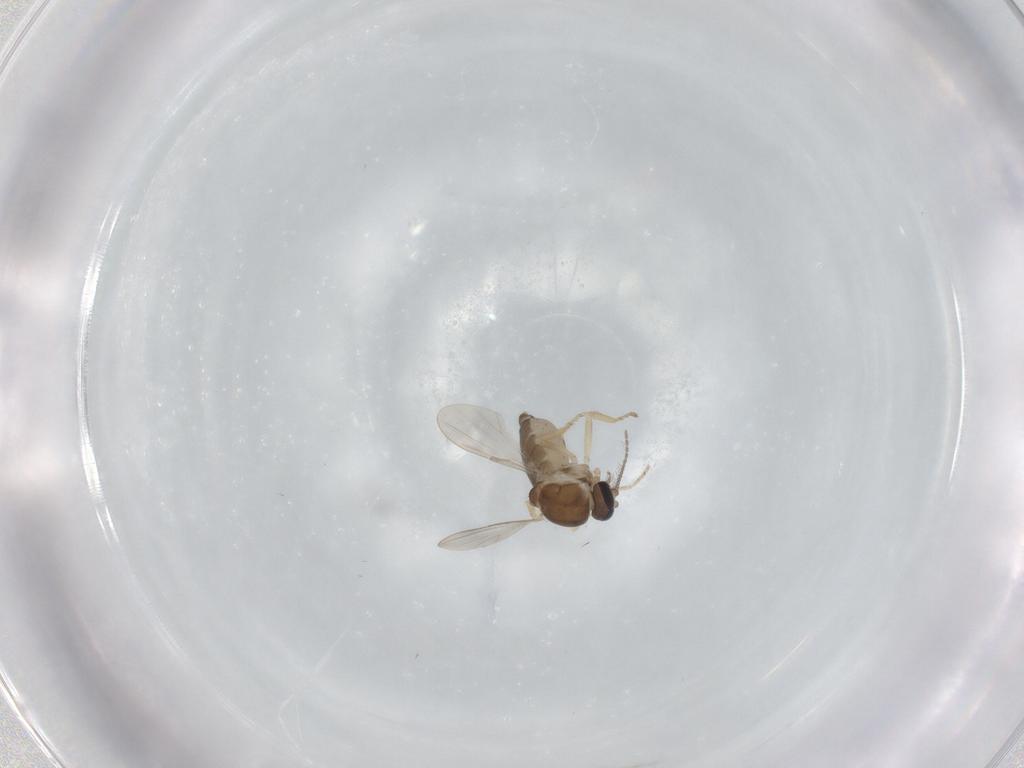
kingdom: Animalia
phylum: Arthropoda
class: Insecta
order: Diptera
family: Ceratopogonidae
